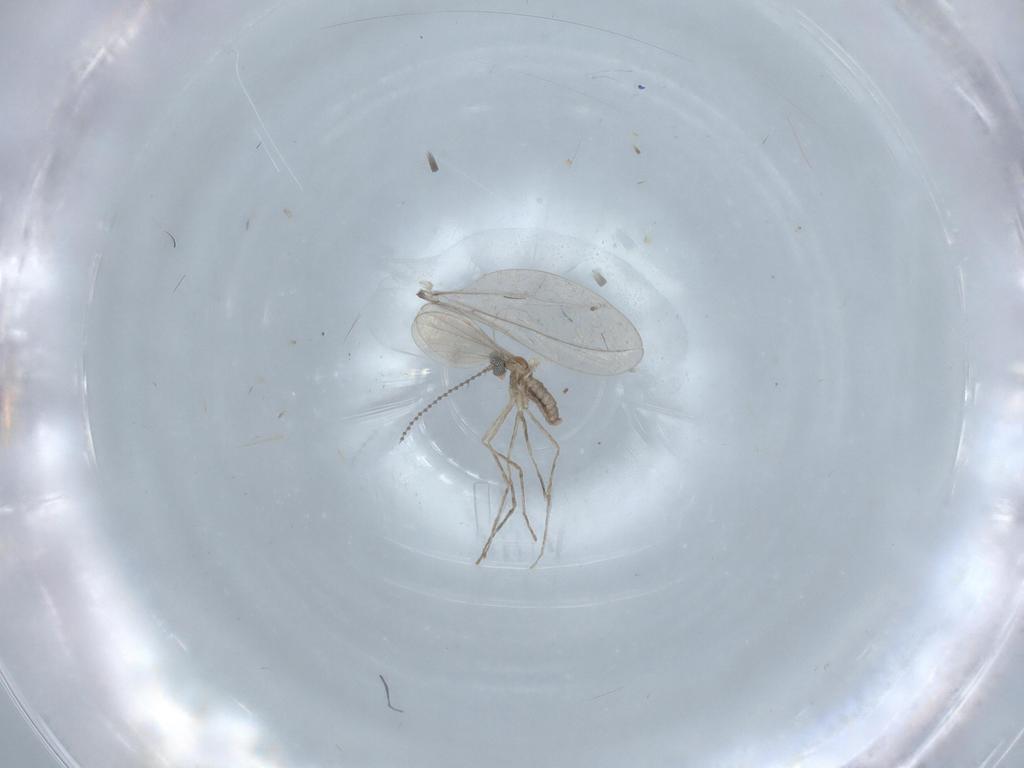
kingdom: Animalia
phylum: Arthropoda
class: Insecta
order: Diptera
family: Cecidomyiidae
